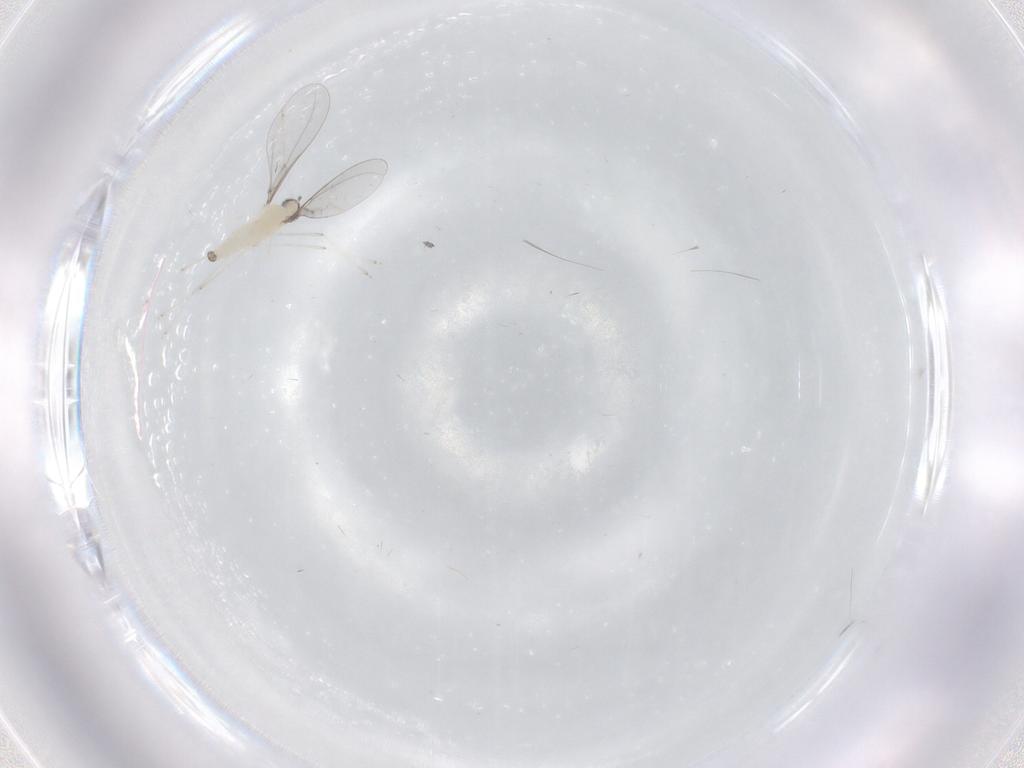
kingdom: Animalia
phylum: Arthropoda
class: Insecta
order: Diptera
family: Cecidomyiidae
